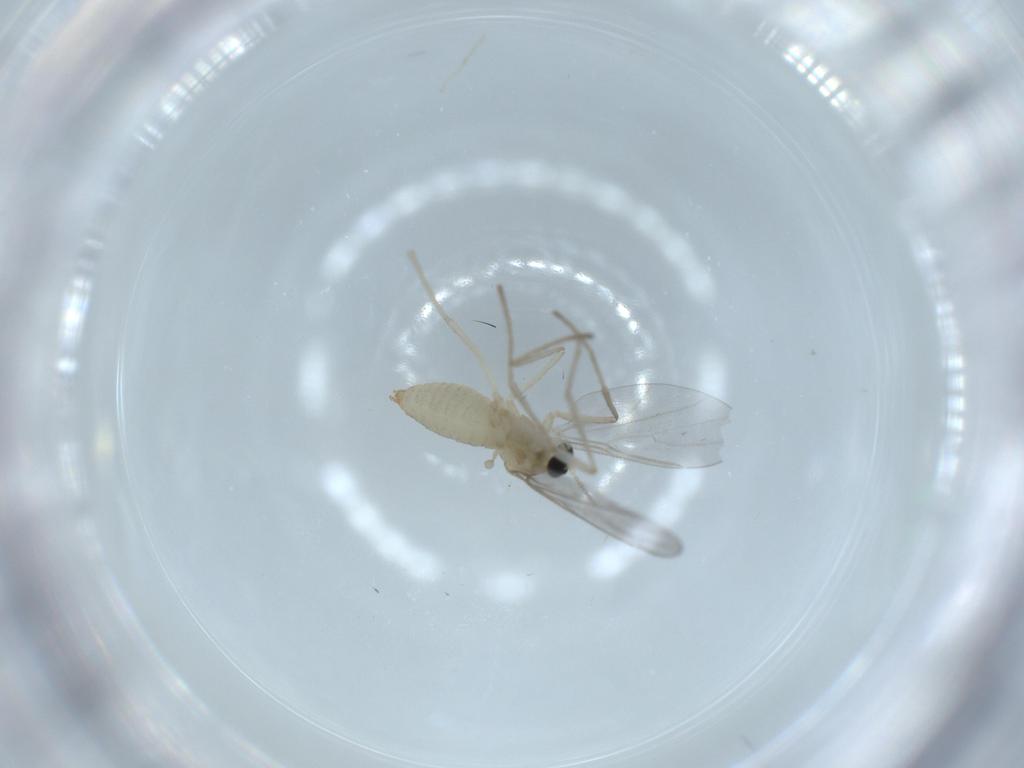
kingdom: Animalia
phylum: Arthropoda
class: Insecta
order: Diptera
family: Cecidomyiidae
